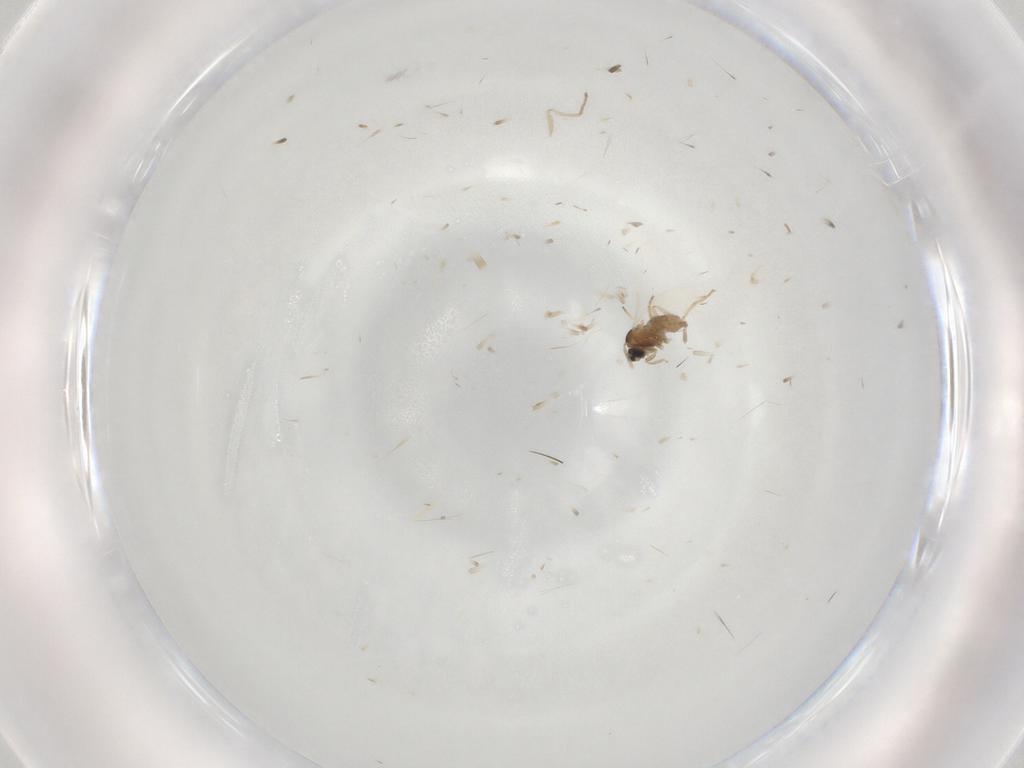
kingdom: Animalia
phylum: Arthropoda
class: Insecta
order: Diptera
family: Cecidomyiidae
